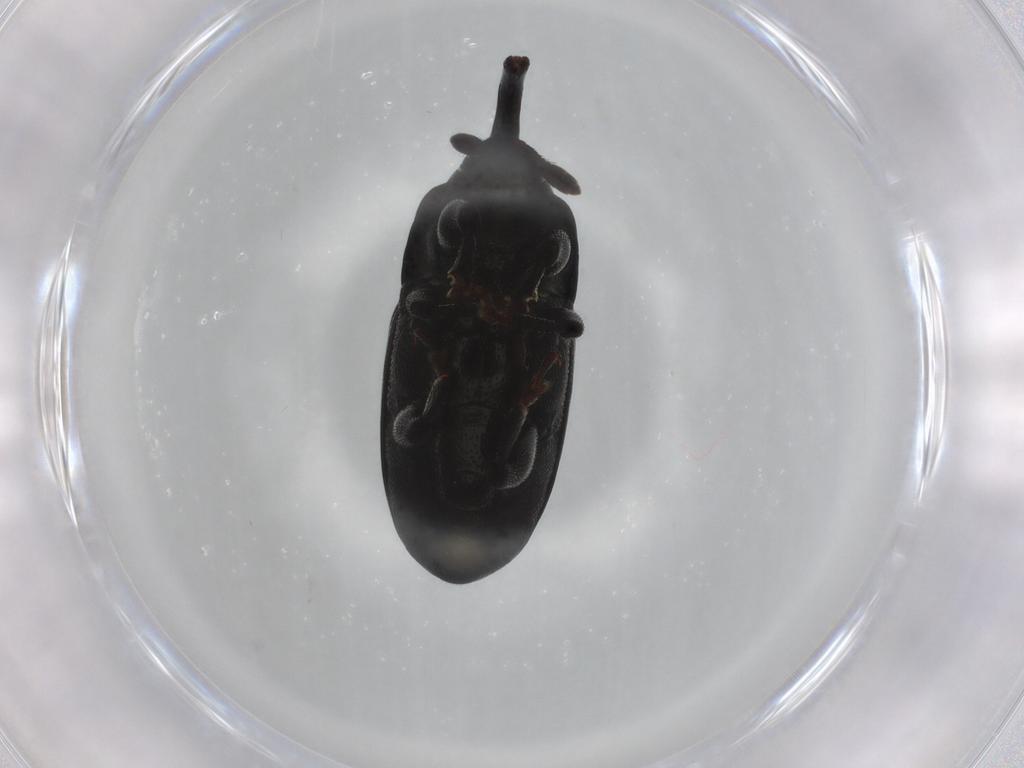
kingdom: Animalia
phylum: Arthropoda
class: Insecta
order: Coleoptera
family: Curculionidae
